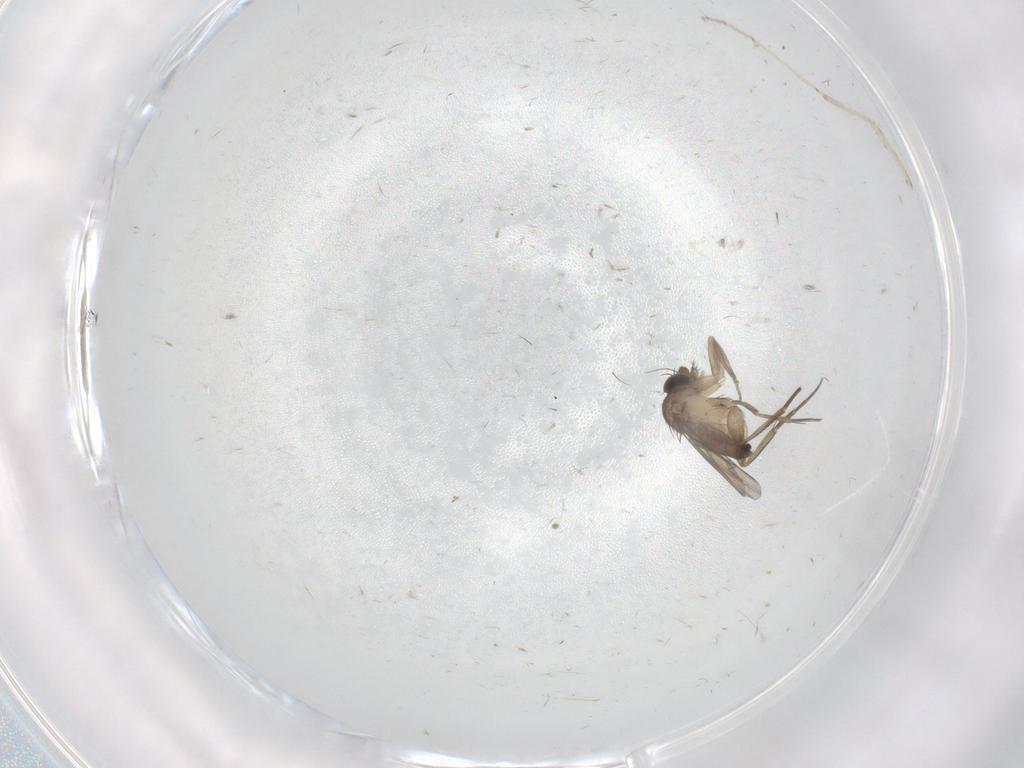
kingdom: Animalia
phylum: Arthropoda
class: Insecta
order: Diptera
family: Phoridae
